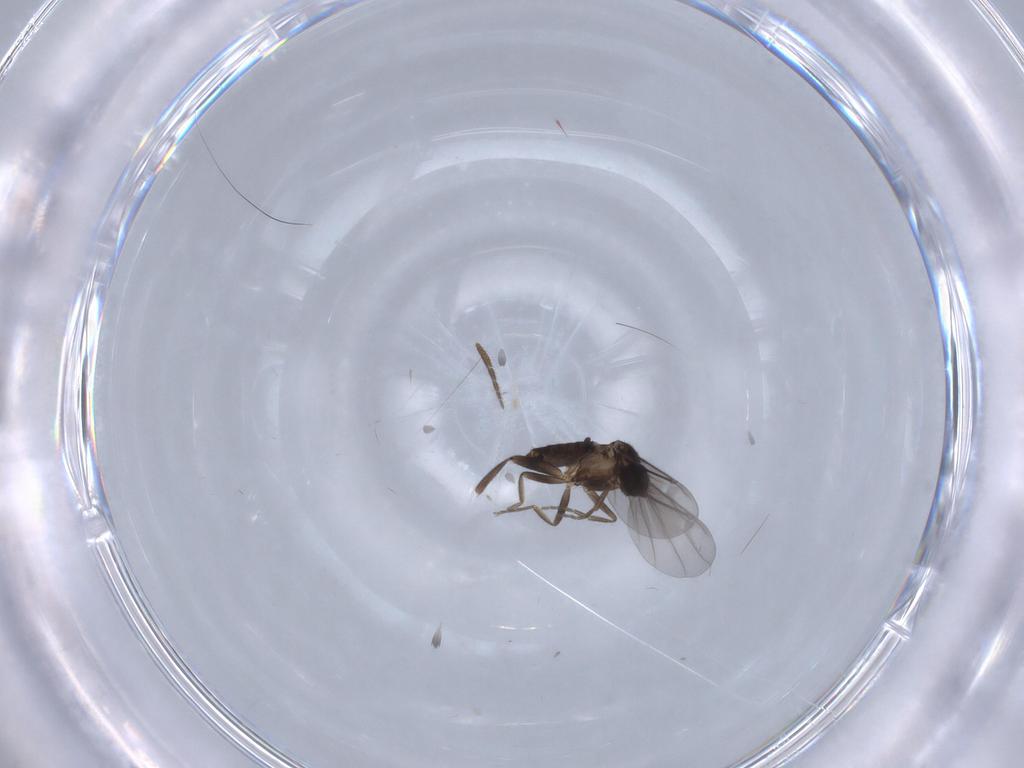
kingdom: Animalia
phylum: Arthropoda
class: Insecta
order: Diptera
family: Phoridae
